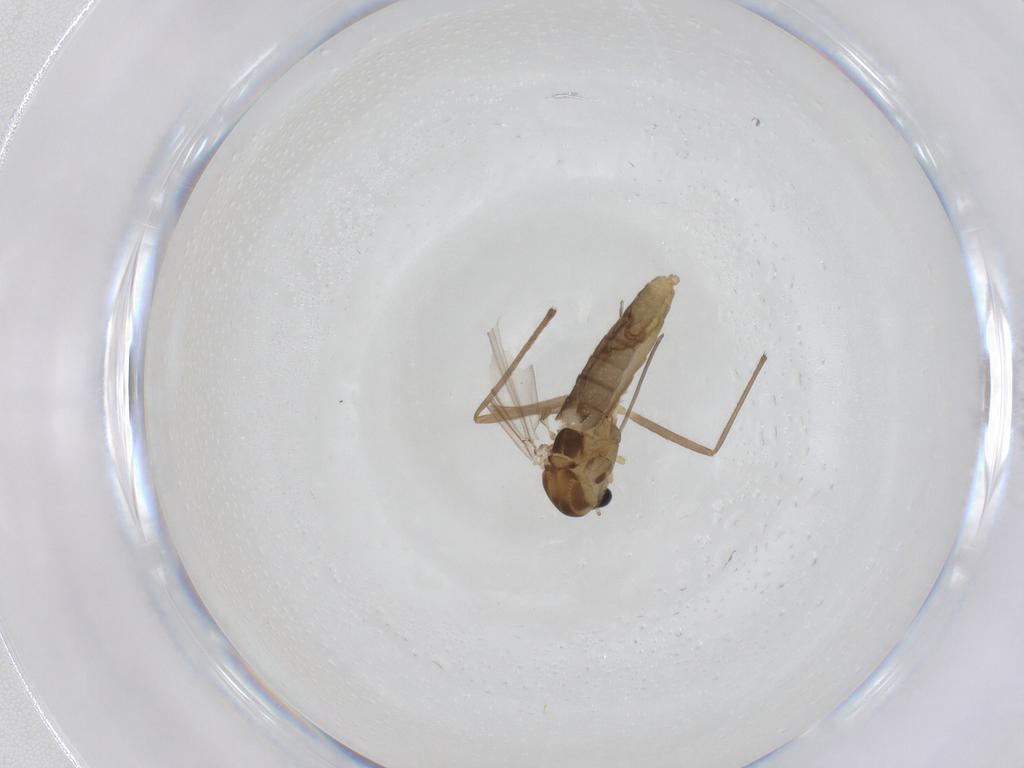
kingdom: Animalia
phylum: Arthropoda
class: Insecta
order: Diptera
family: Chironomidae
